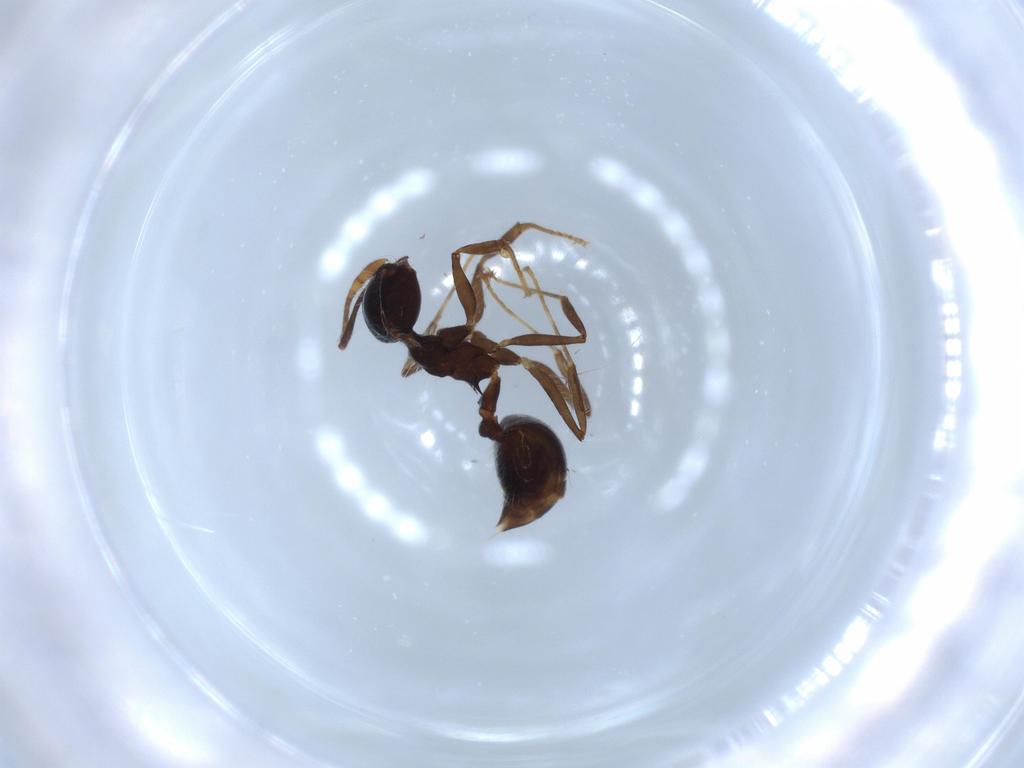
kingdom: Animalia
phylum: Arthropoda
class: Insecta
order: Hymenoptera
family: Formicidae
